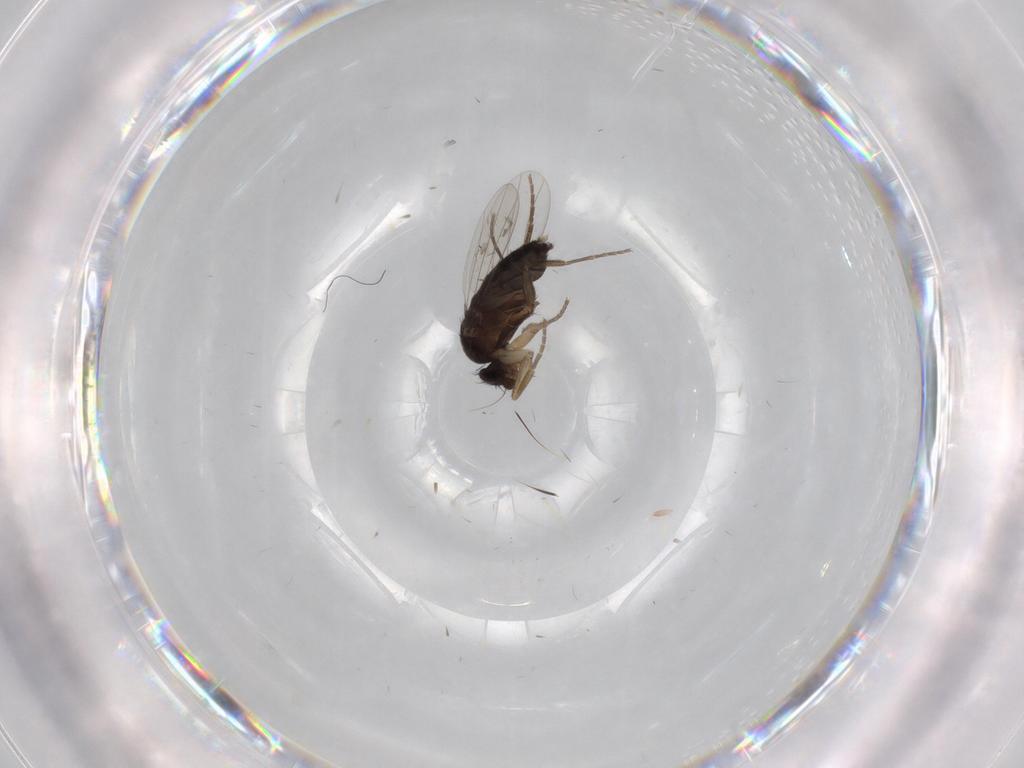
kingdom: Animalia
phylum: Arthropoda
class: Insecta
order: Diptera
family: Phoridae
